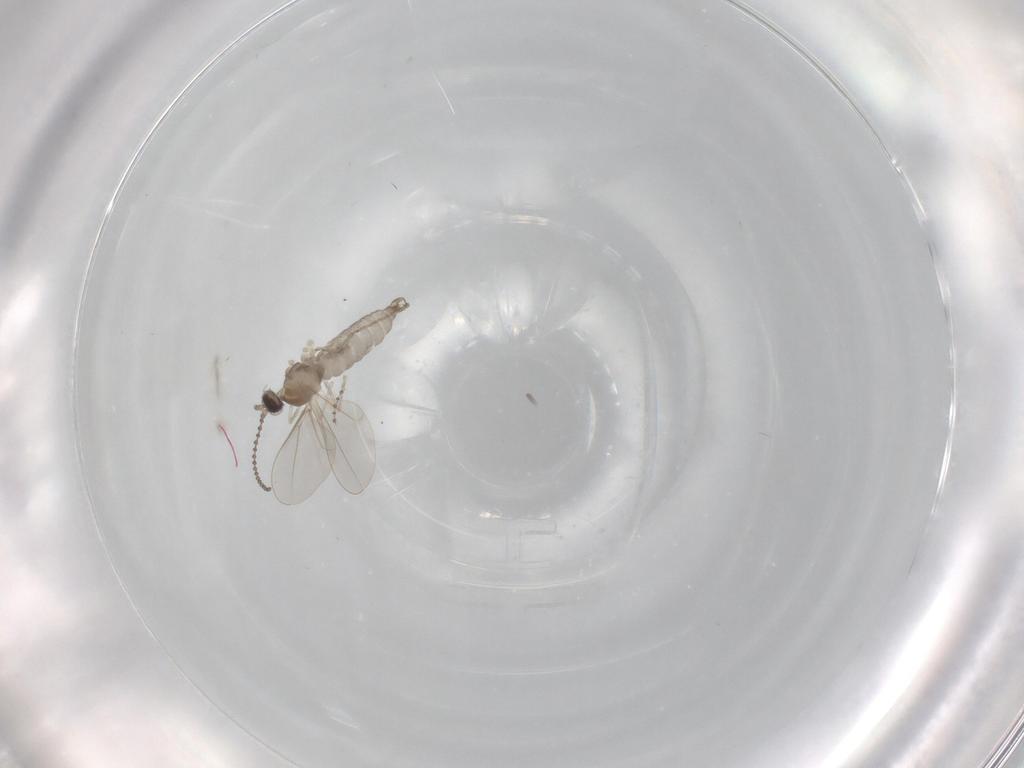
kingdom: Animalia
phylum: Arthropoda
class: Insecta
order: Diptera
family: Cecidomyiidae
